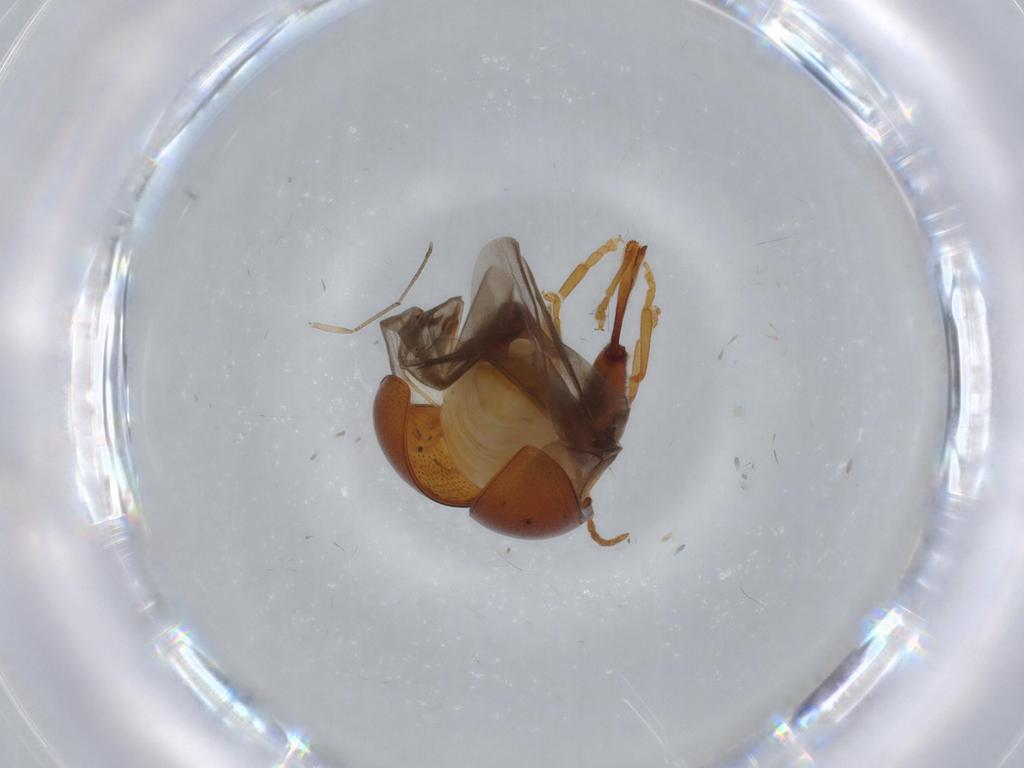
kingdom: Animalia
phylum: Arthropoda
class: Insecta
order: Coleoptera
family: Chrysomelidae
